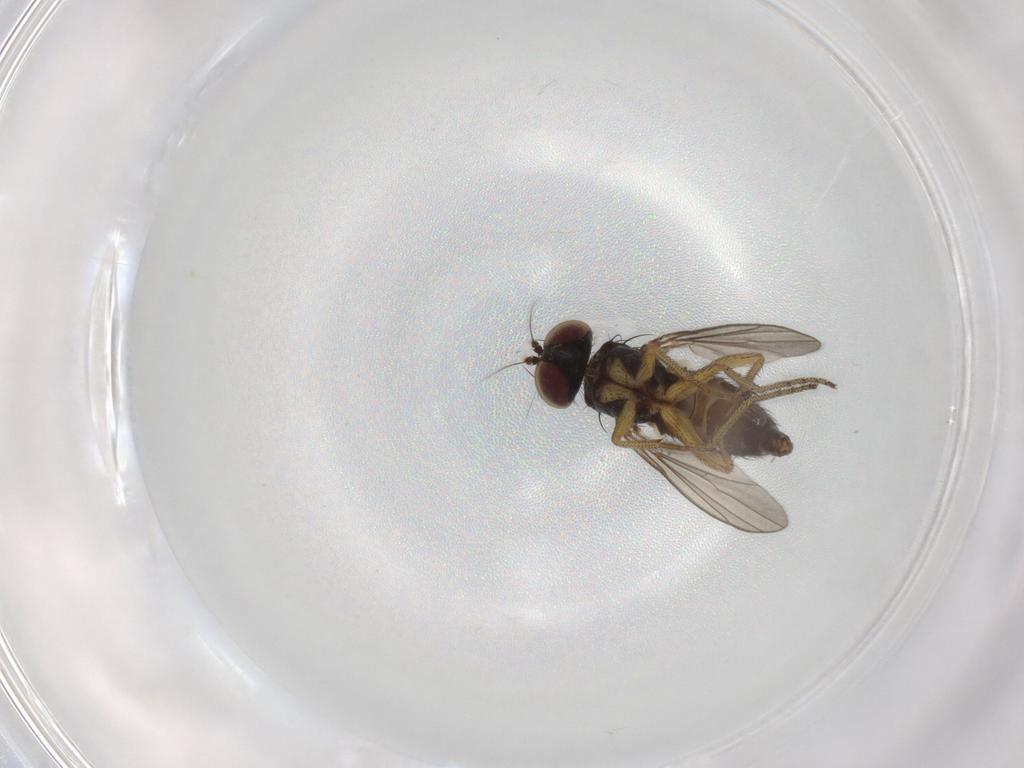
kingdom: Animalia
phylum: Arthropoda
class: Insecta
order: Diptera
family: Dolichopodidae
